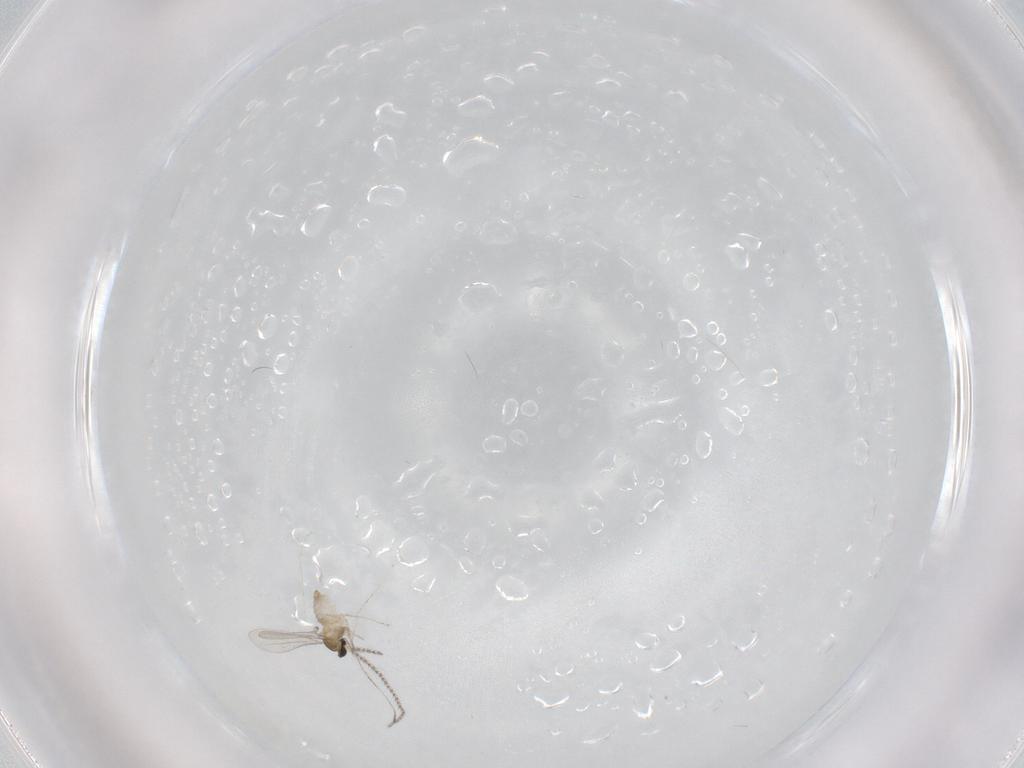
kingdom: Animalia
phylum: Arthropoda
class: Insecta
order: Diptera
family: Cecidomyiidae
